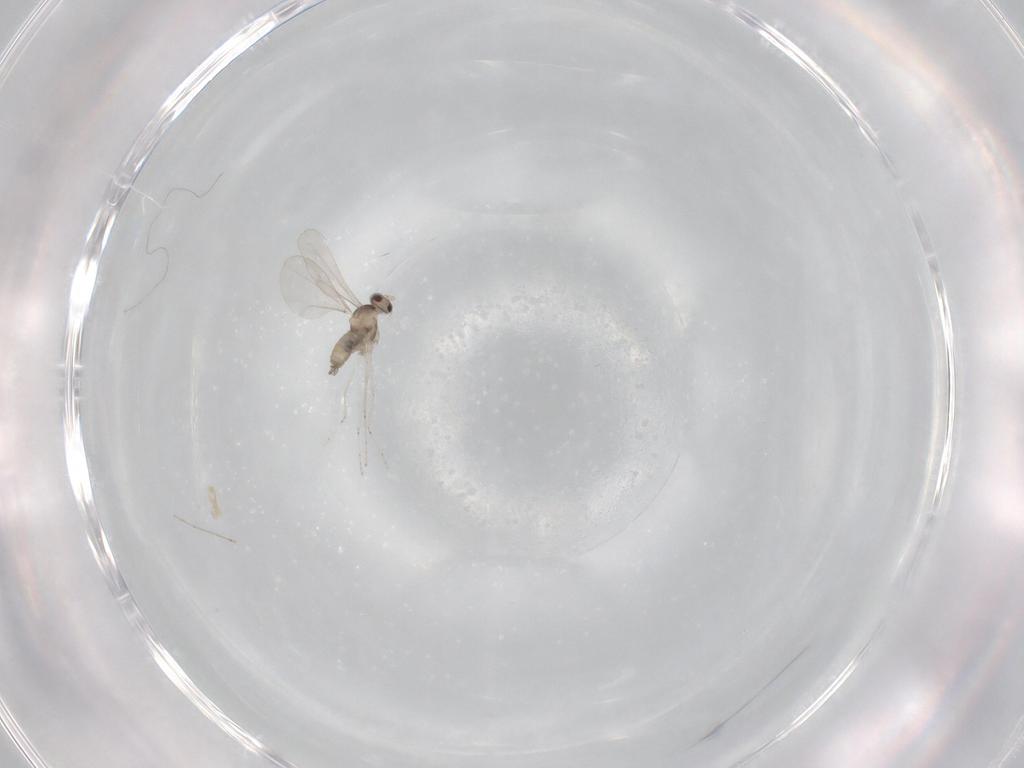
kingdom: Animalia
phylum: Arthropoda
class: Insecta
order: Diptera
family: Cecidomyiidae
